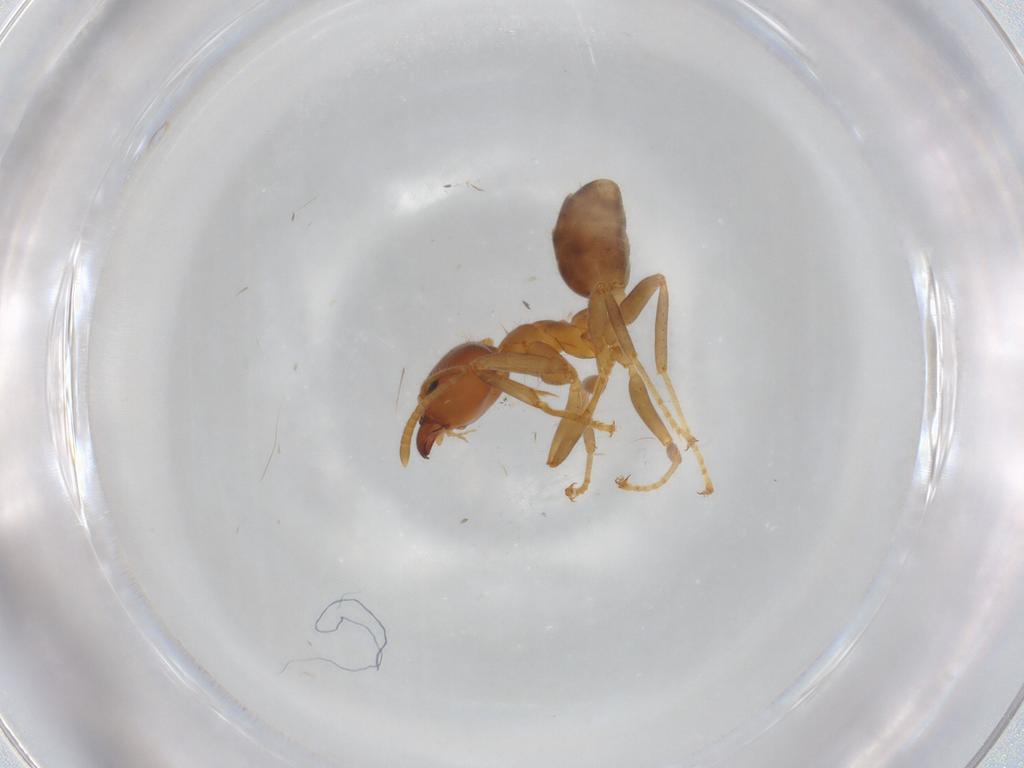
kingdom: Animalia
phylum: Arthropoda
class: Insecta
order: Hymenoptera
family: Formicidae
